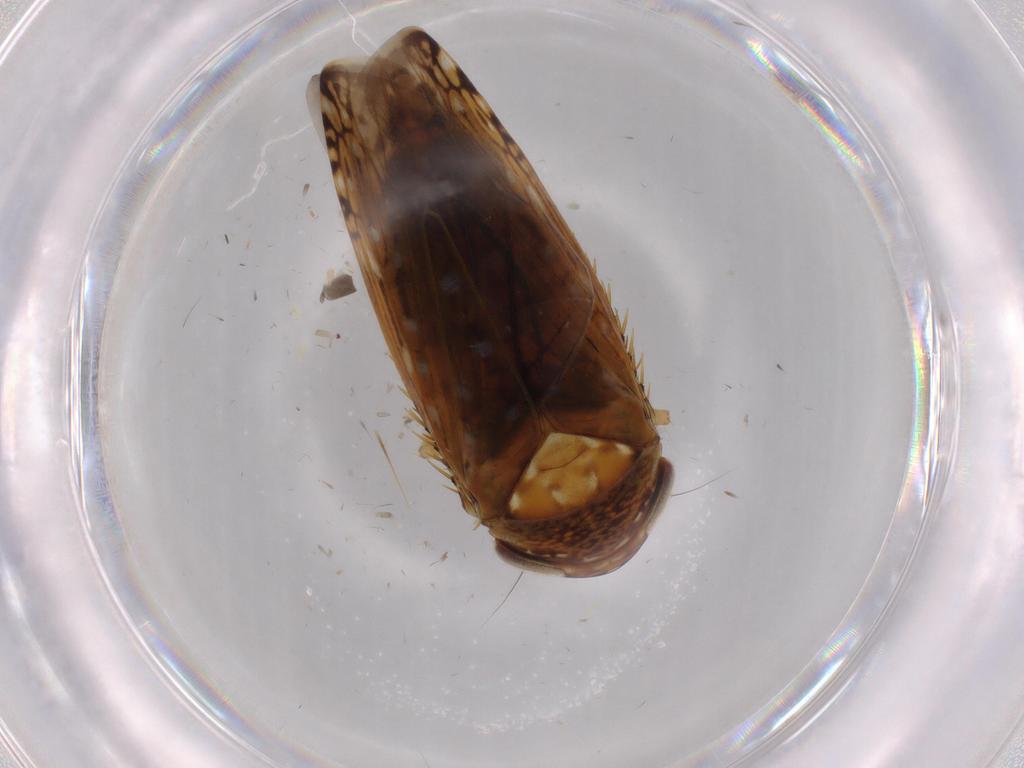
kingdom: Animalia
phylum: Arthropoda
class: Insecta
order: Hemiptera
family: Cicadellidae
